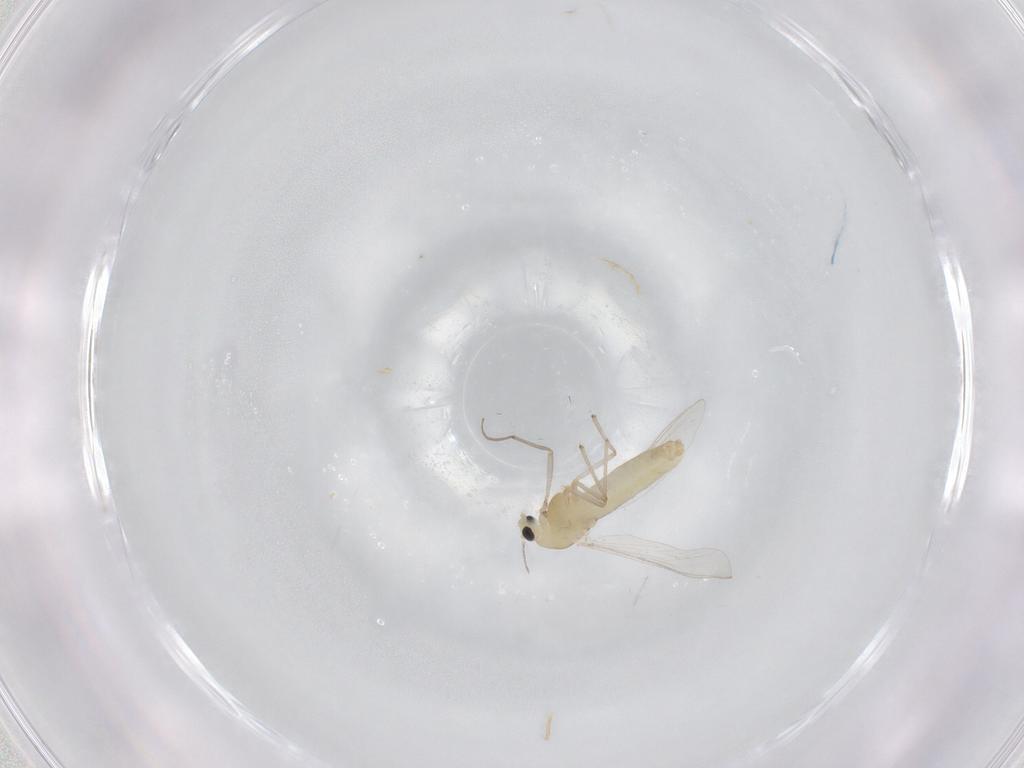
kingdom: Animalia
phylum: Arthropoda
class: Insecta
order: Diptera
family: Chironomidae
